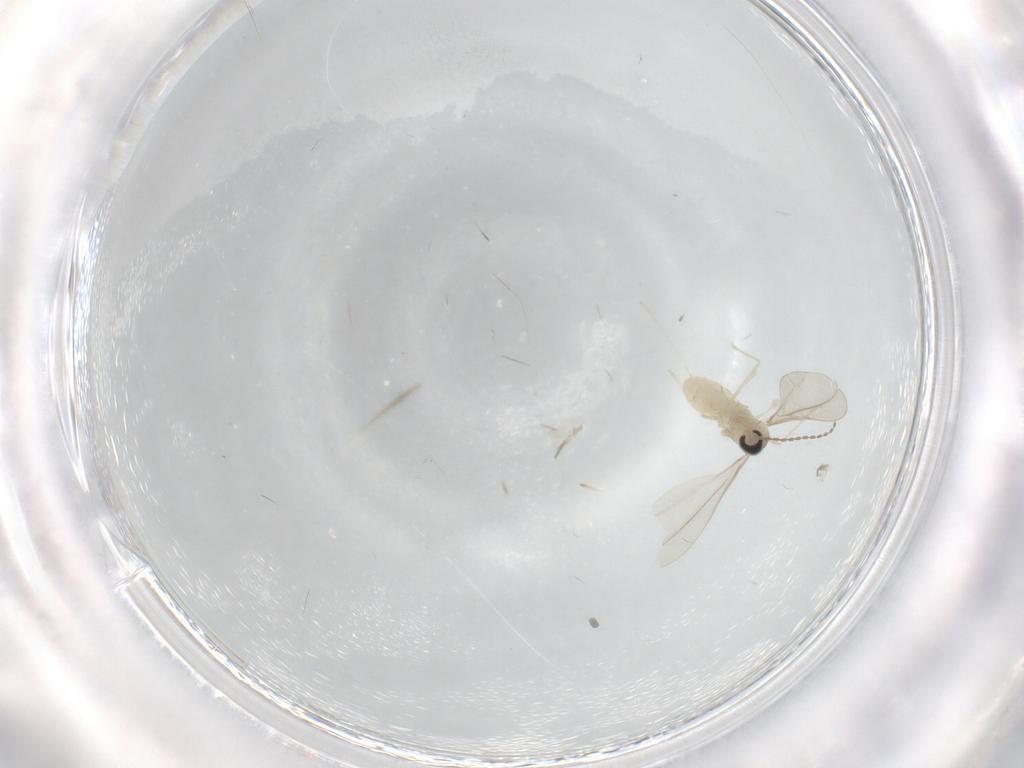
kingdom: Animalia
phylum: Arthropoda
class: Insecta
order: Diptera
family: Cecidomyiidae
